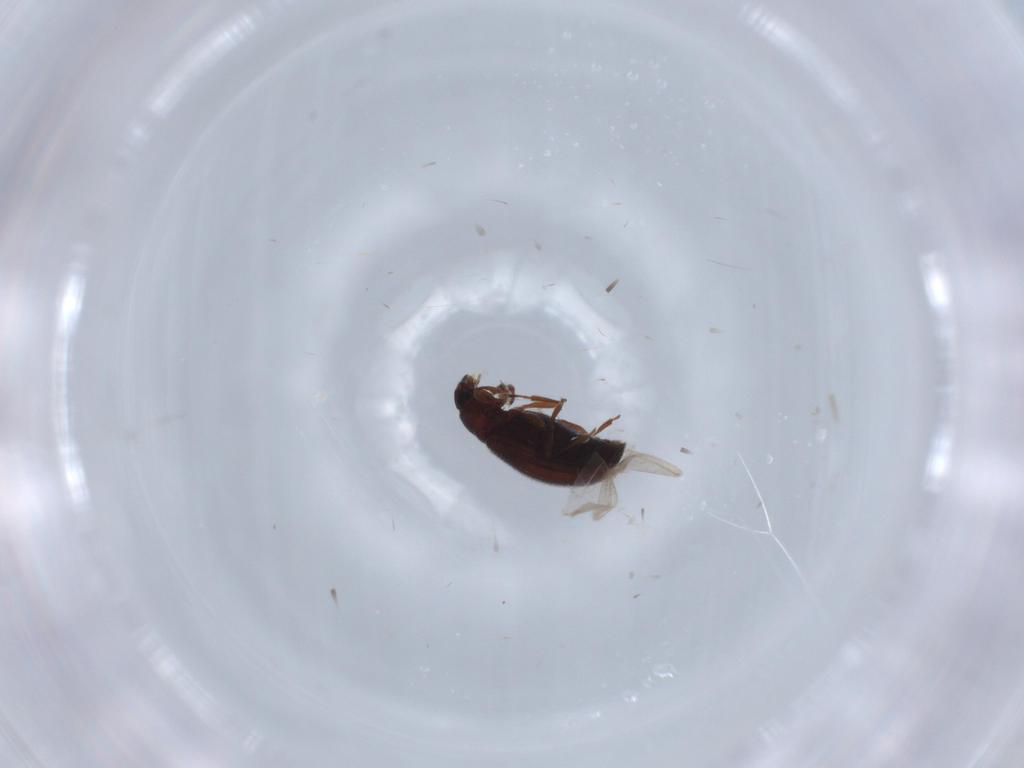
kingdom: Animalia
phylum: Arthropoda
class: Insecta
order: Coleoptera
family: Latridiidae
